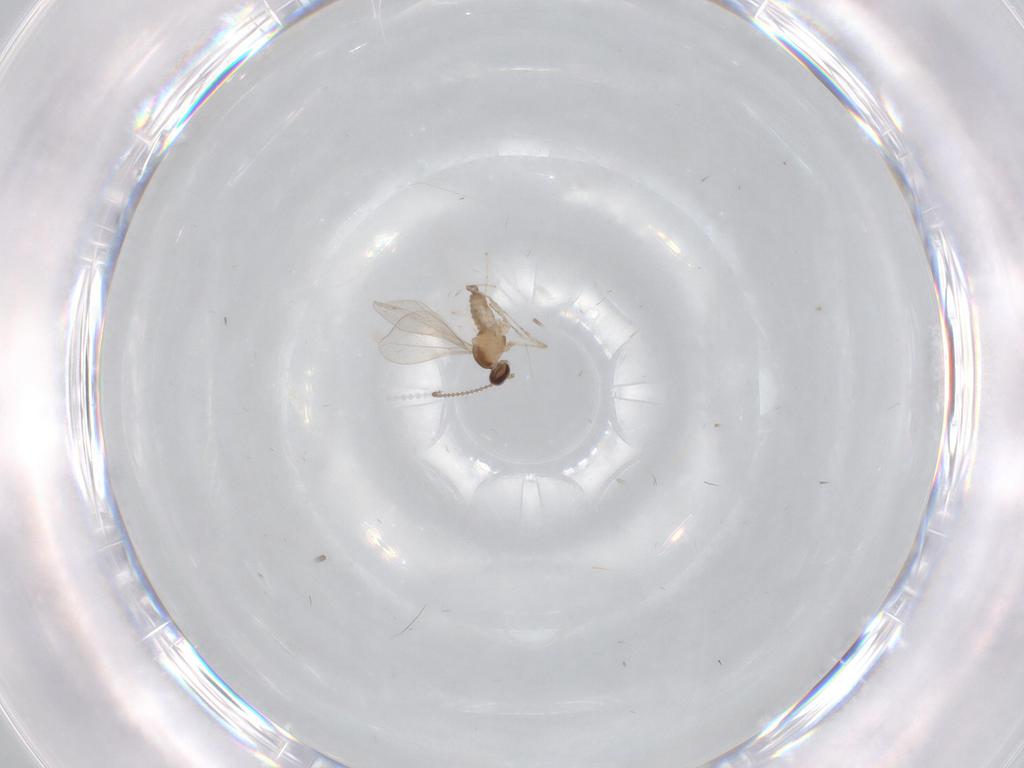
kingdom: Animalia
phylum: Arthropoda
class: Insecta
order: Diptera
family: Cecidomyiidae
